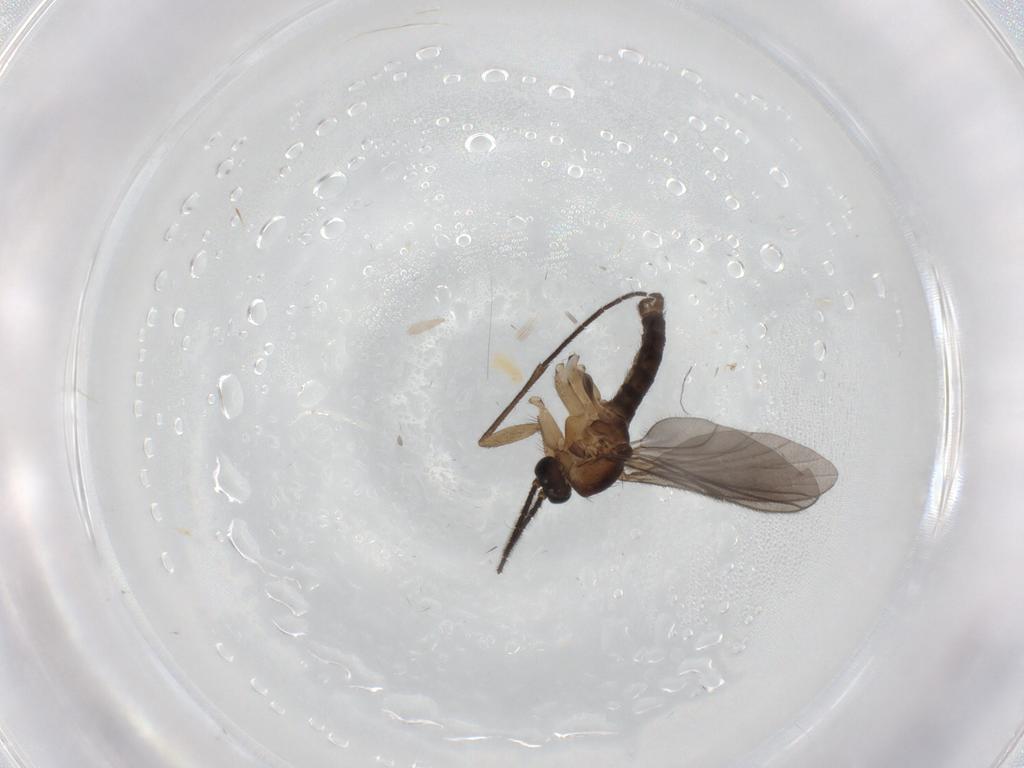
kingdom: Animalia
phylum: Arthropoda
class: Insecta
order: Diptera
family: Sciaridae
